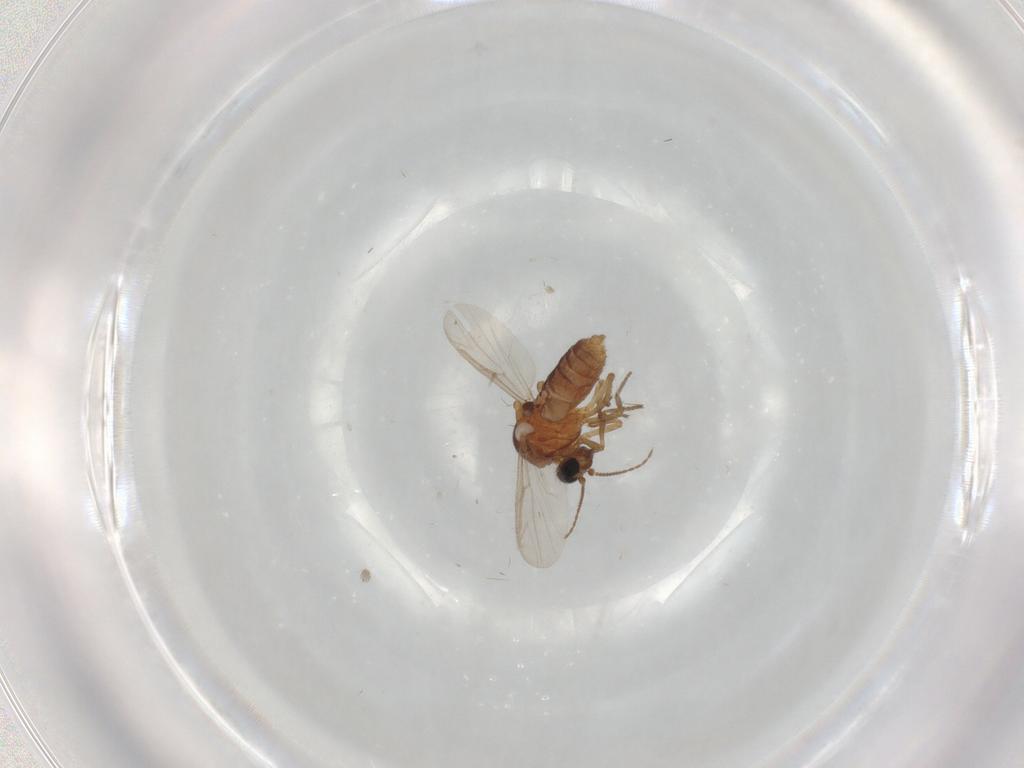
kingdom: Animalia
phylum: Arthropoda
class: Insecta
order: Diptera
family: Psychodidae
